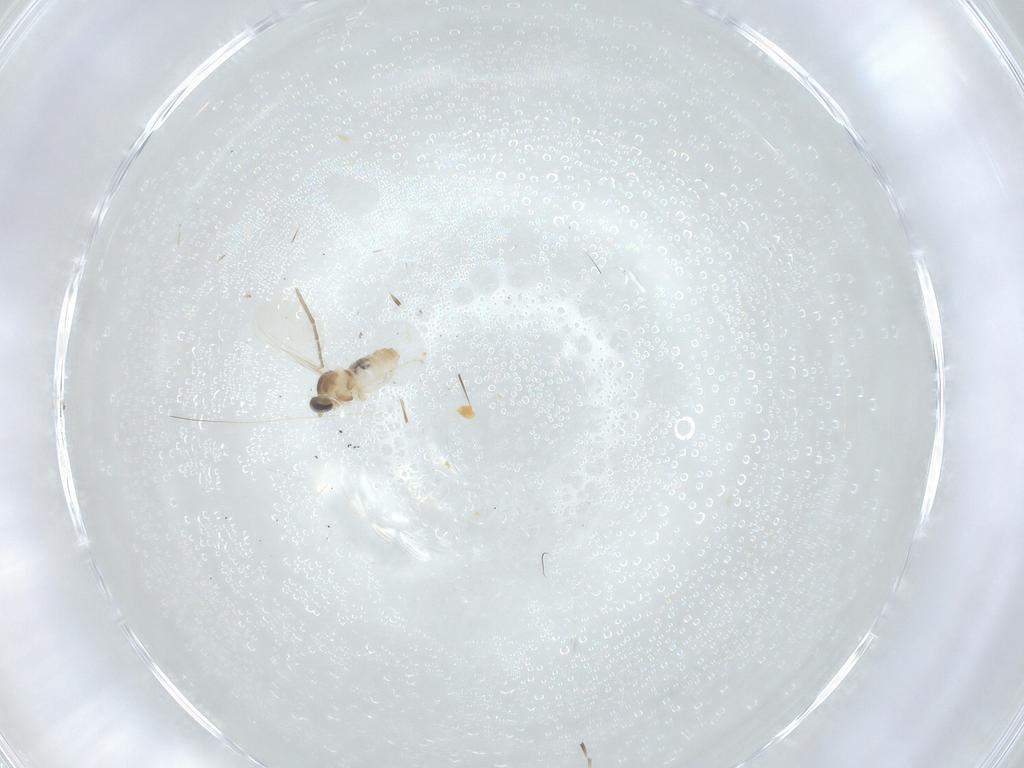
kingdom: Animalia
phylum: Arthropoda
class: Insecta
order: Diptera
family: Cecidomyiidae
